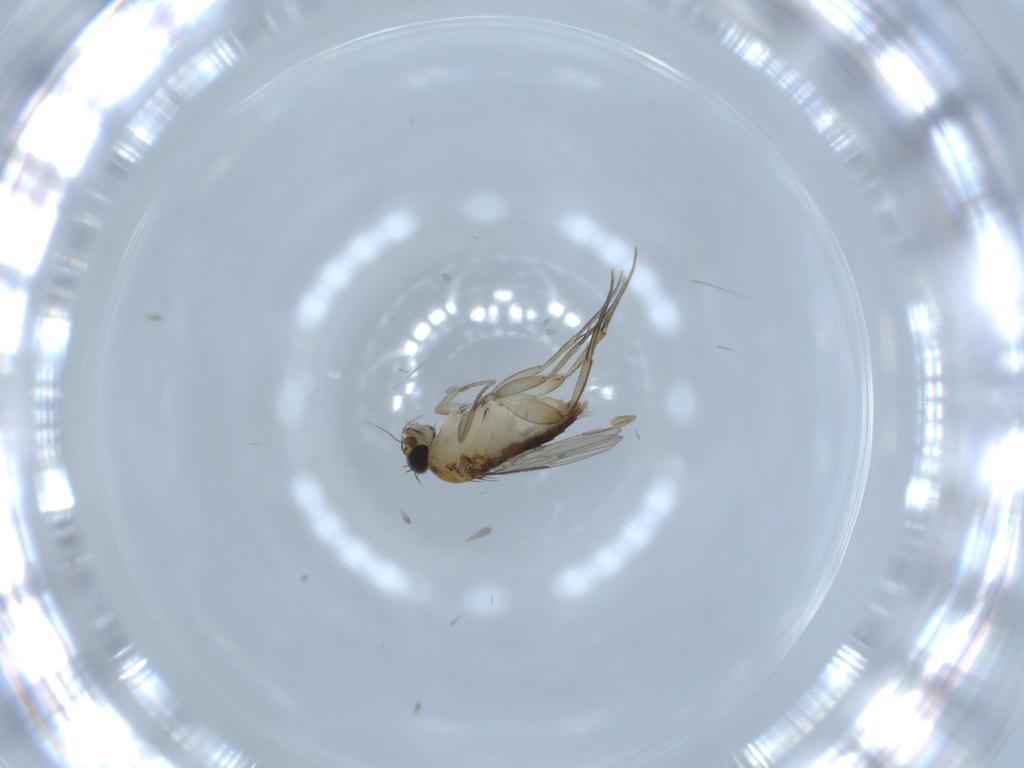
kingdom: Animalia
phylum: Arthropoda
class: Insecta
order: Diptera
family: Phoridae
